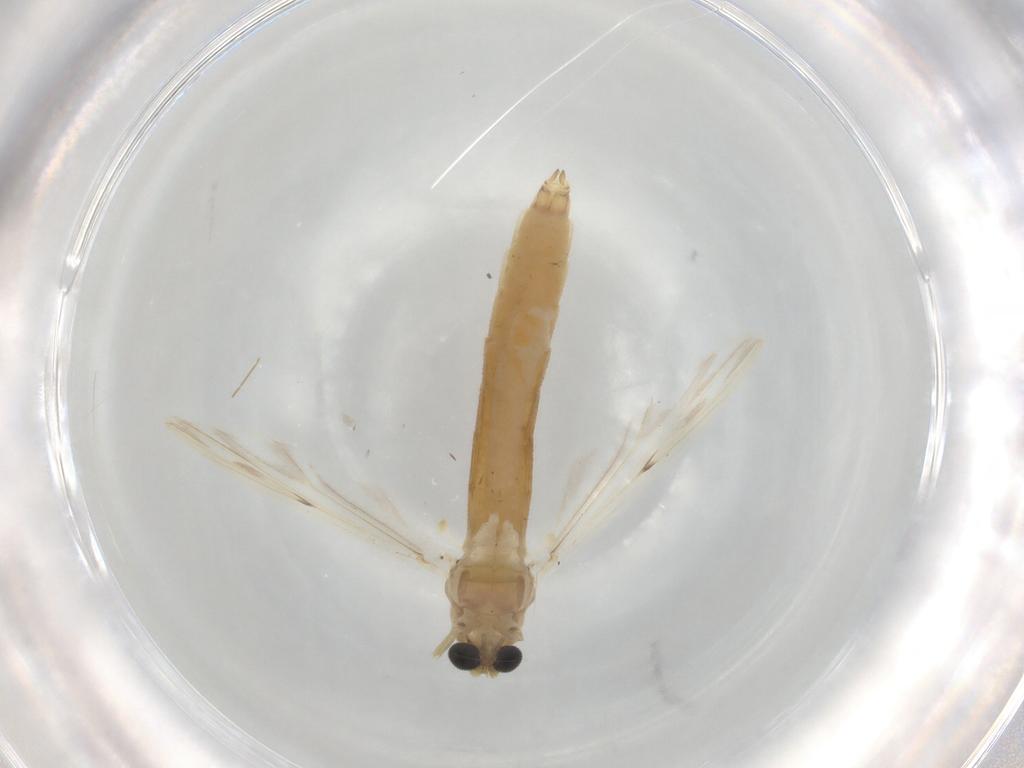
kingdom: Animalia
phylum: Arthropoda
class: Insecta
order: Diptera
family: Chironomidae
